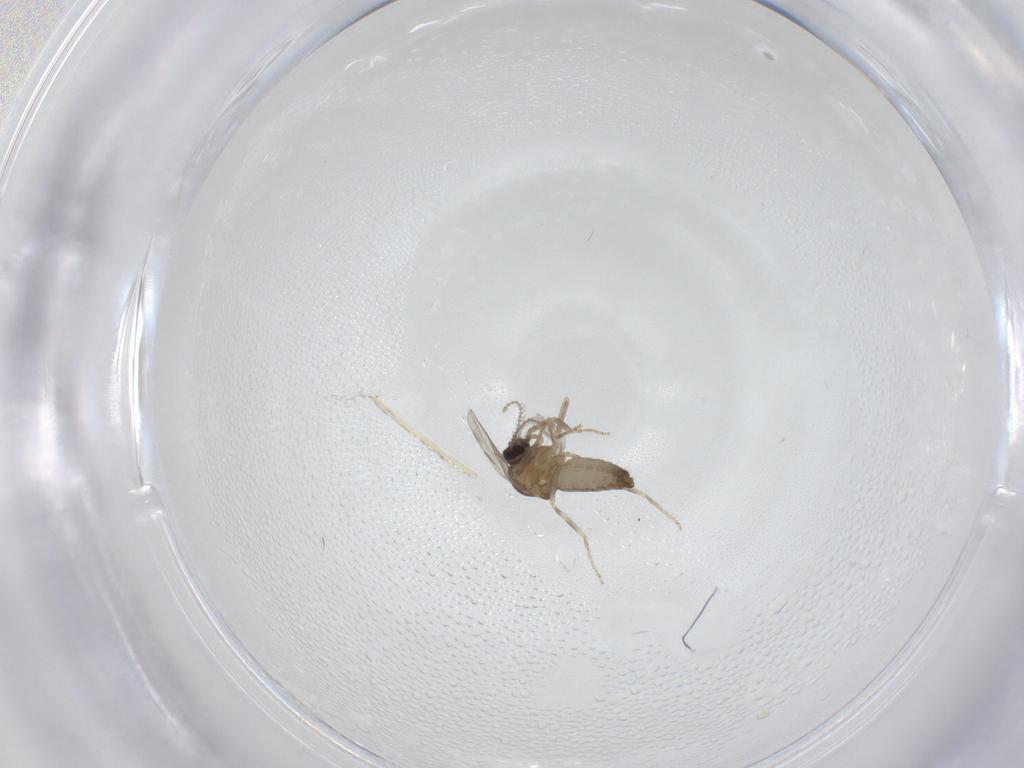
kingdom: Animalia
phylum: Arthropoda
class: Insecta
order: Diptera
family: Ceratopogonidae
